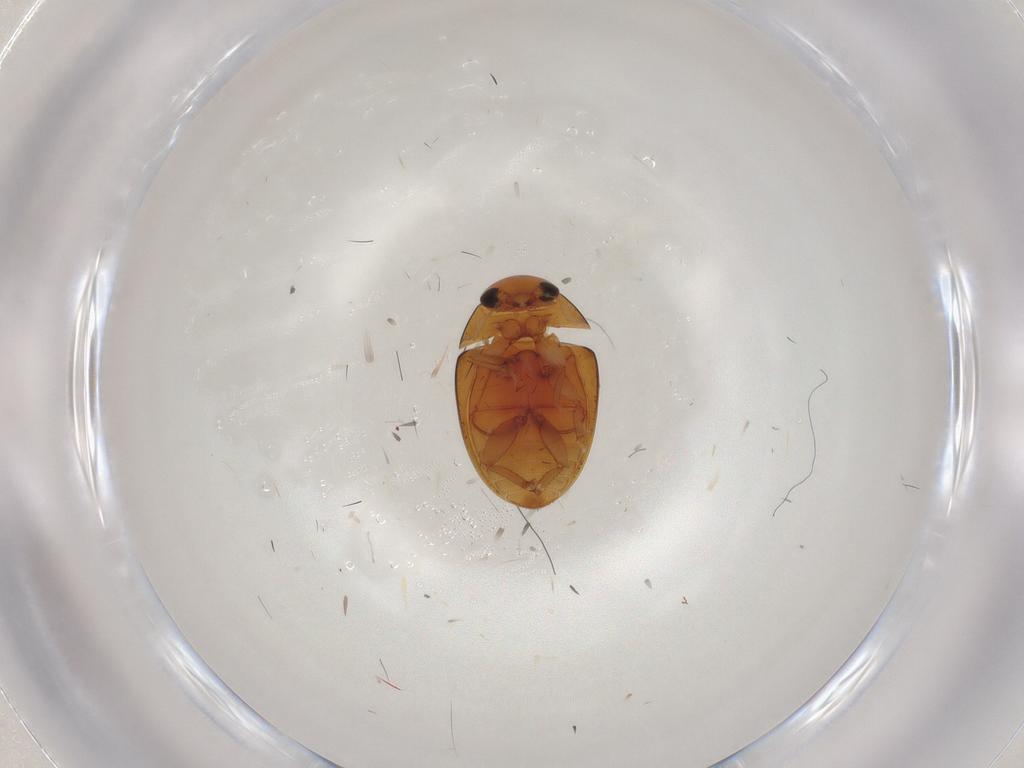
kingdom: Animalia
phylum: Arthropoda
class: Insecta
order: Coleoptera
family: Phalacridae
